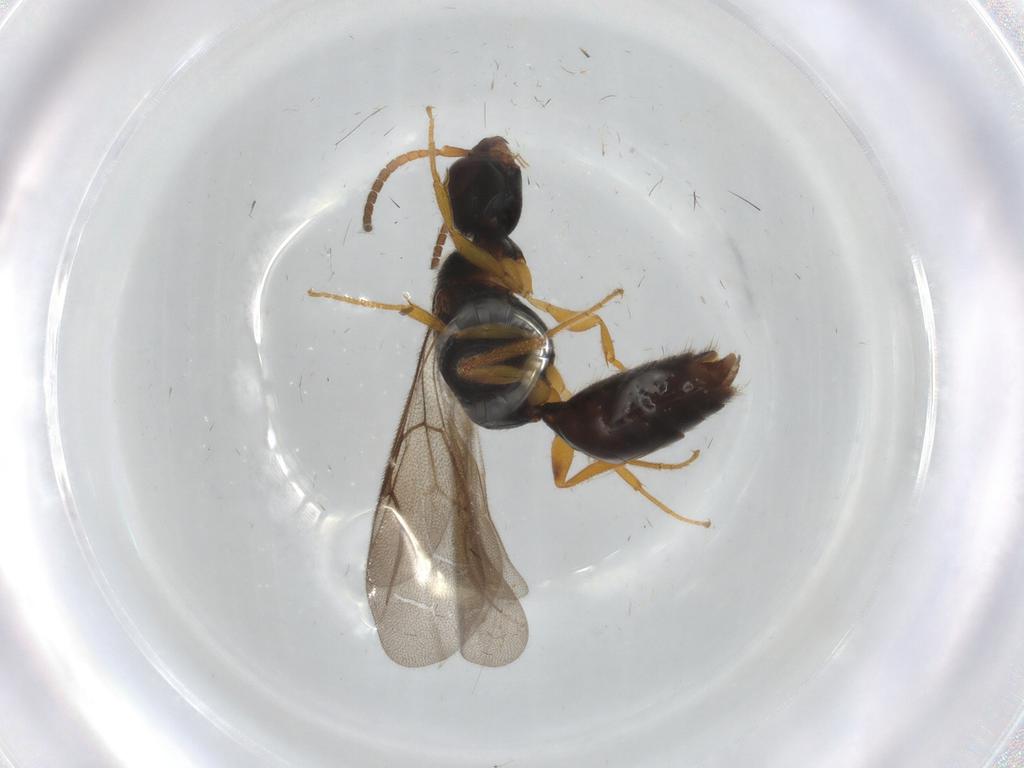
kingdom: Animalia
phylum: Arthropoda
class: Insecta
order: Hymenoptera
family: Bethylidae
